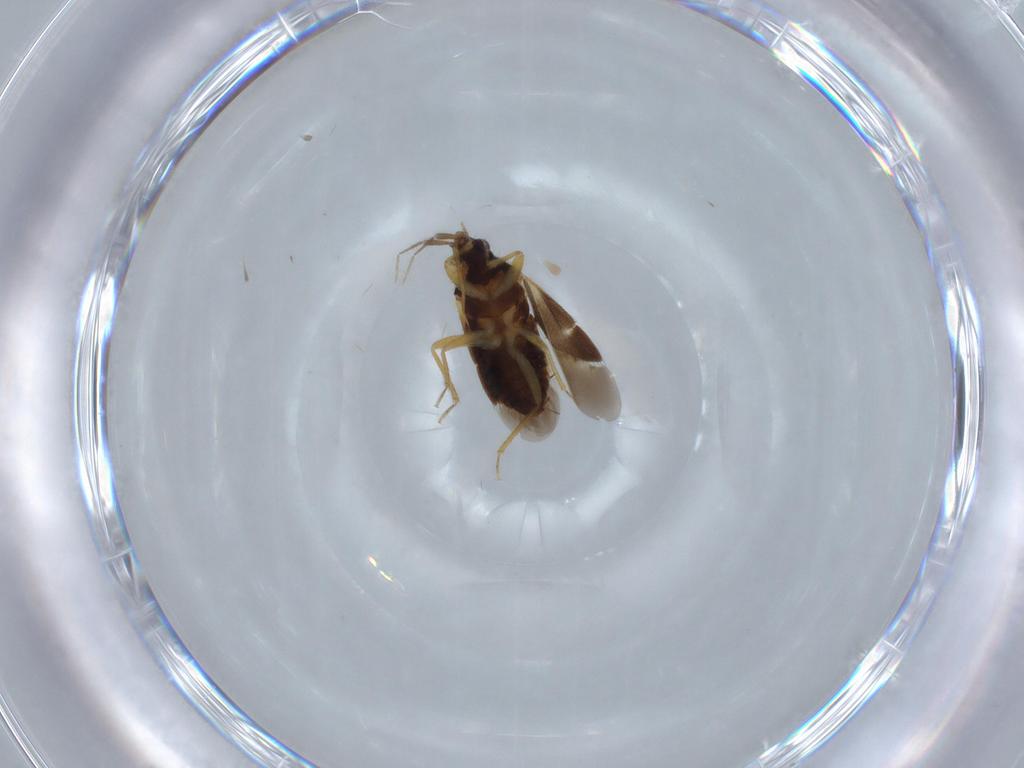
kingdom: Animalia
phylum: Arthropoda
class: Insecta
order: Hemiptera
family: Lasiochilidae
